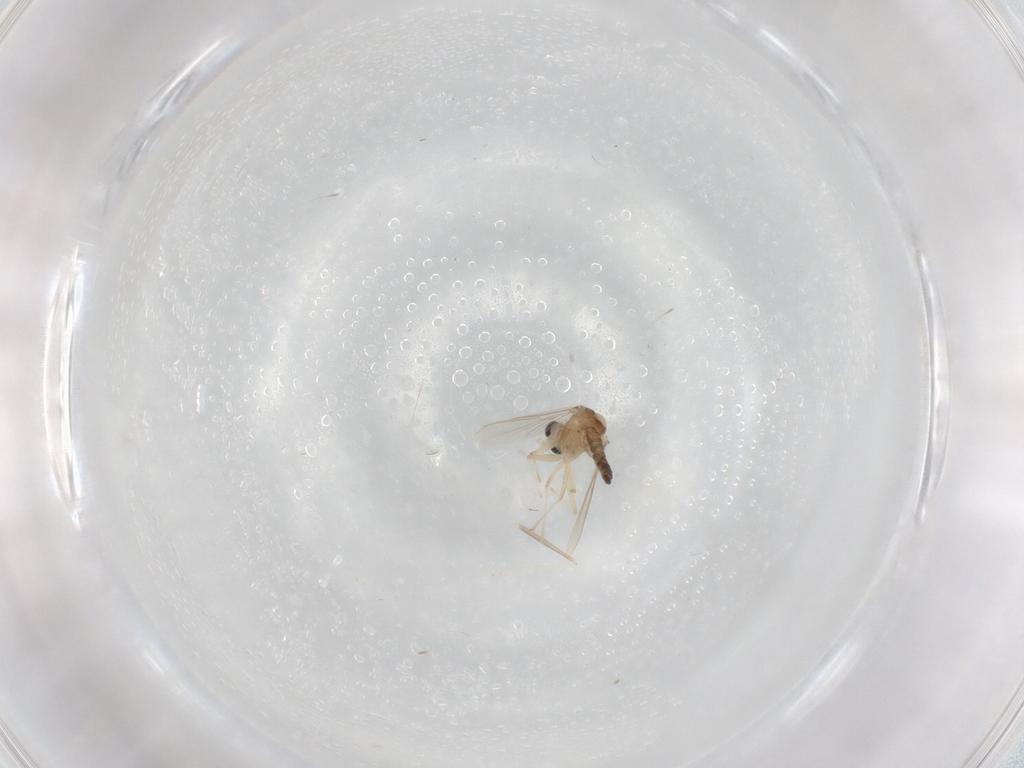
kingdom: Animalia
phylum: Arthropoda
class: Insecta
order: Diptera
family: Chironomidae
